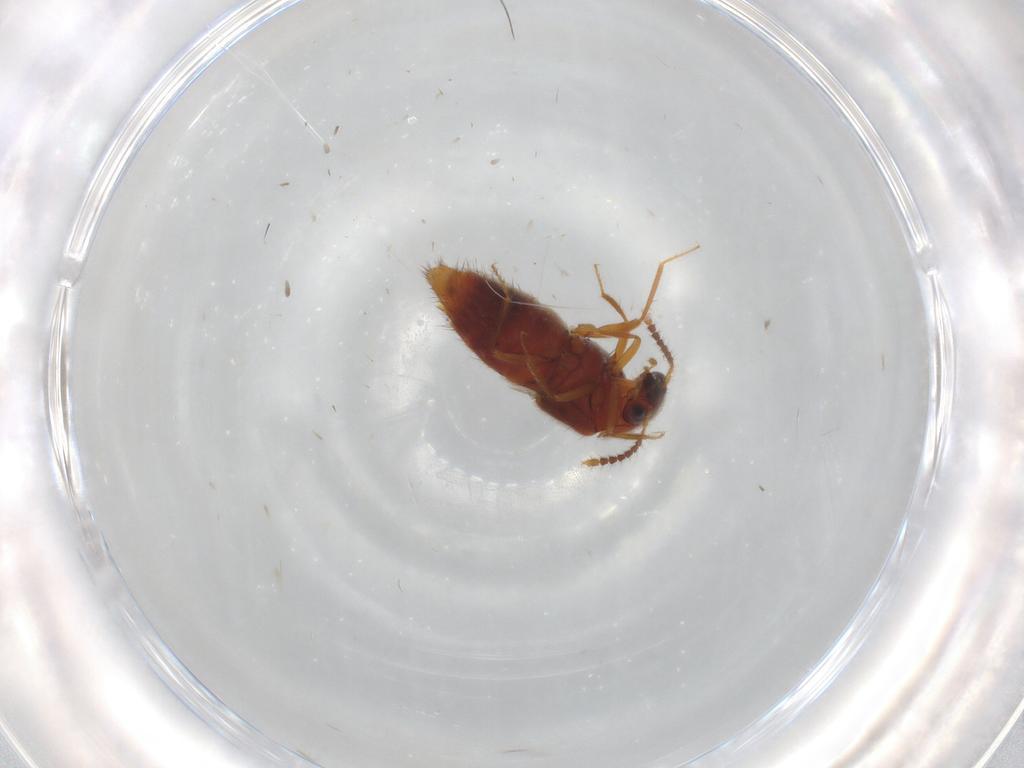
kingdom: Animalia
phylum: Arthropoda
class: Insecta
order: Coleoptera
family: Staphylinidae
